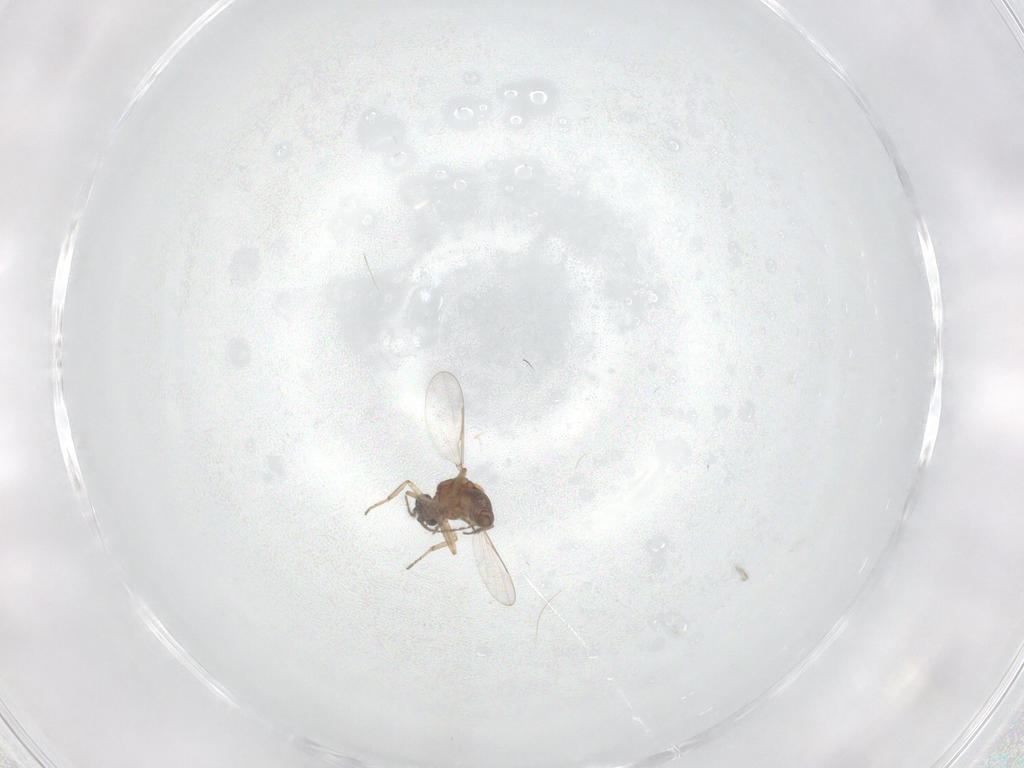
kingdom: Animalia
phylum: Arthropoda
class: Insecta
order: Diptera
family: Ceratopogonidae
